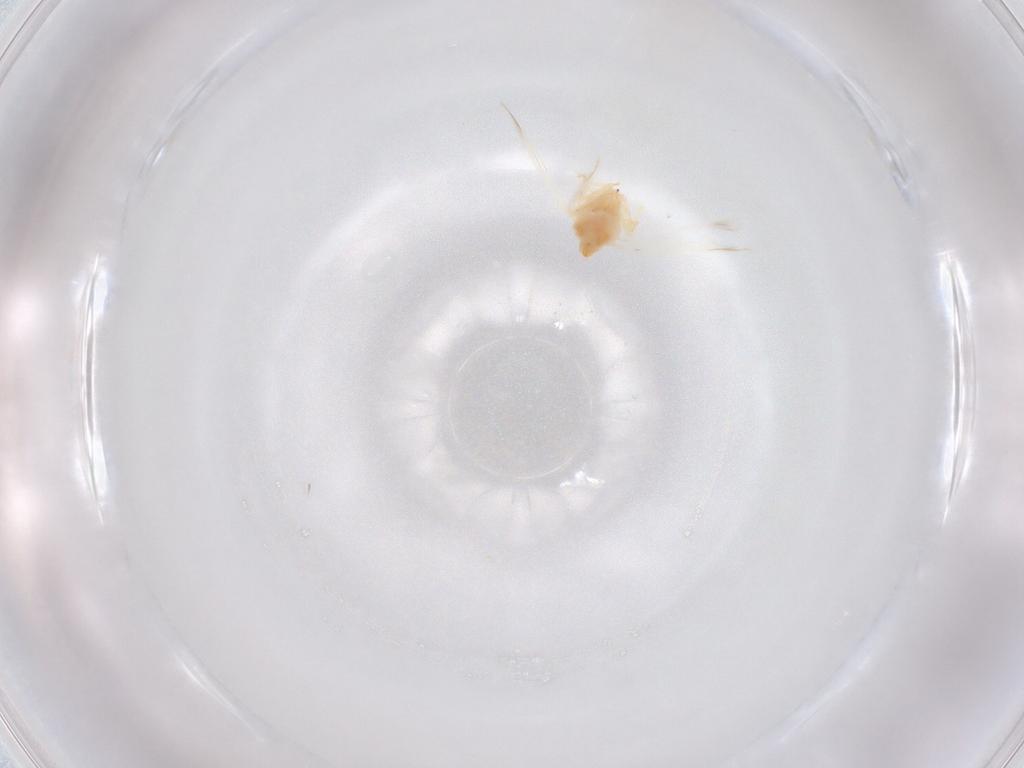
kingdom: Animalia
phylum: Arthropoda
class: Insecta
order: Hemiptera
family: Aleyrodidae
